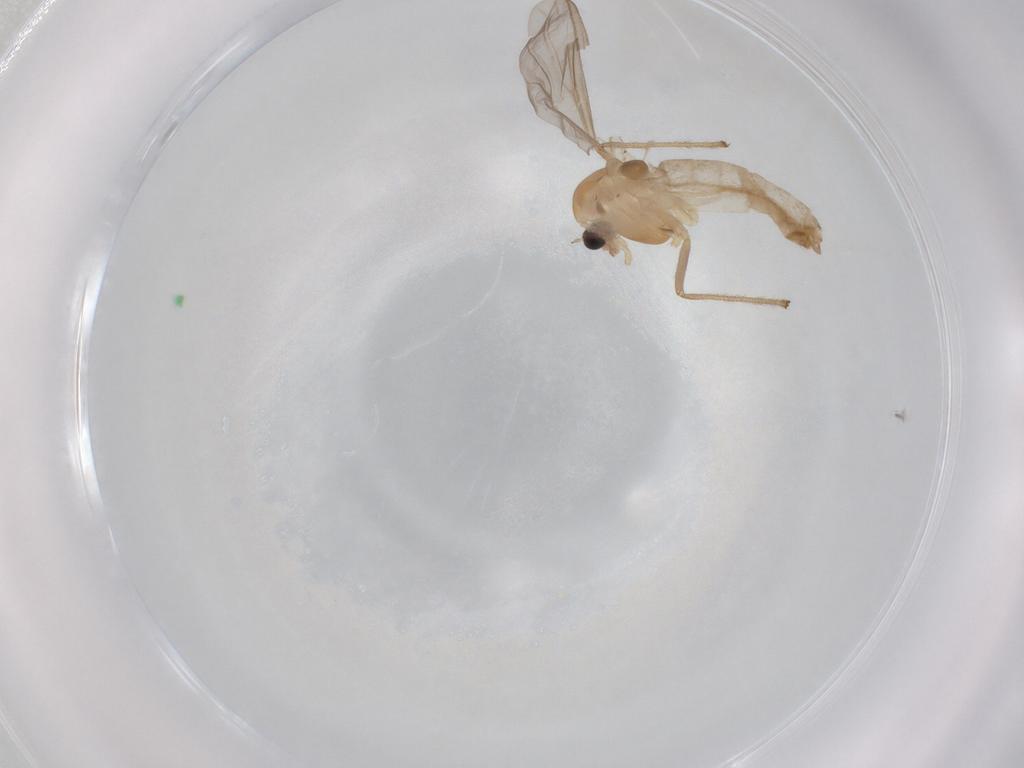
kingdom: Animalia
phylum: Arthropoda
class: Insecta
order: Diptera
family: Chironomidae
